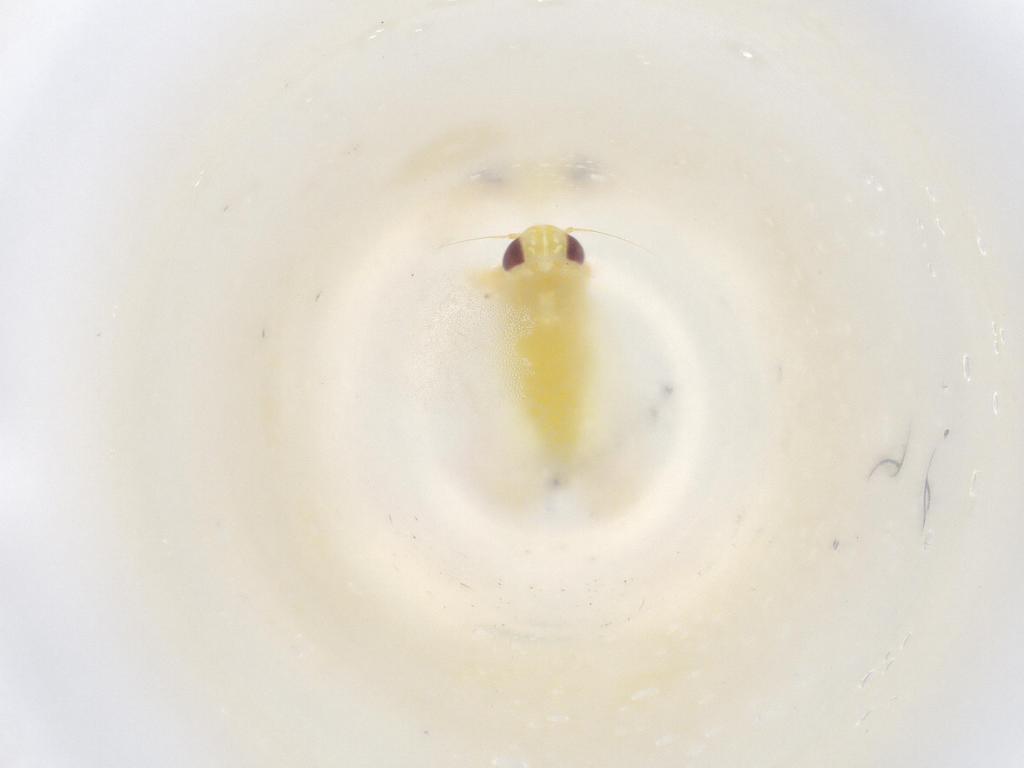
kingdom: Animalia
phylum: Arthropoda
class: Insecta
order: Hemiptera
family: Cicadellidae
